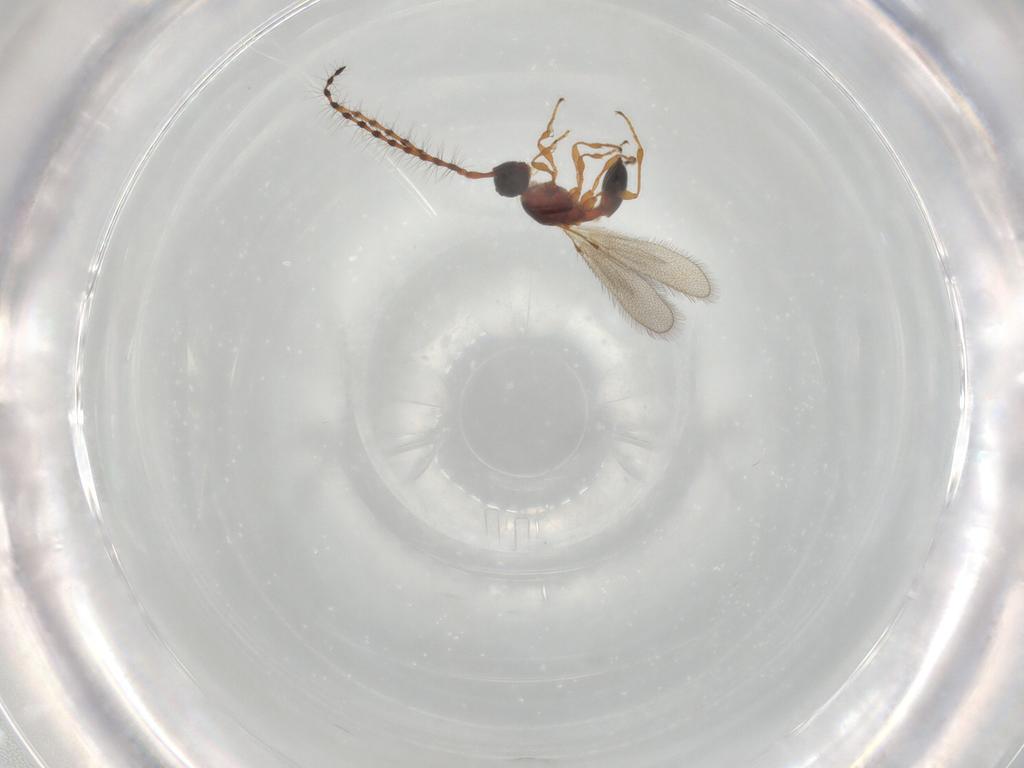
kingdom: Animalia
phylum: Arthropoda
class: Insecta
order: Hymenoptera
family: Diapriidae
